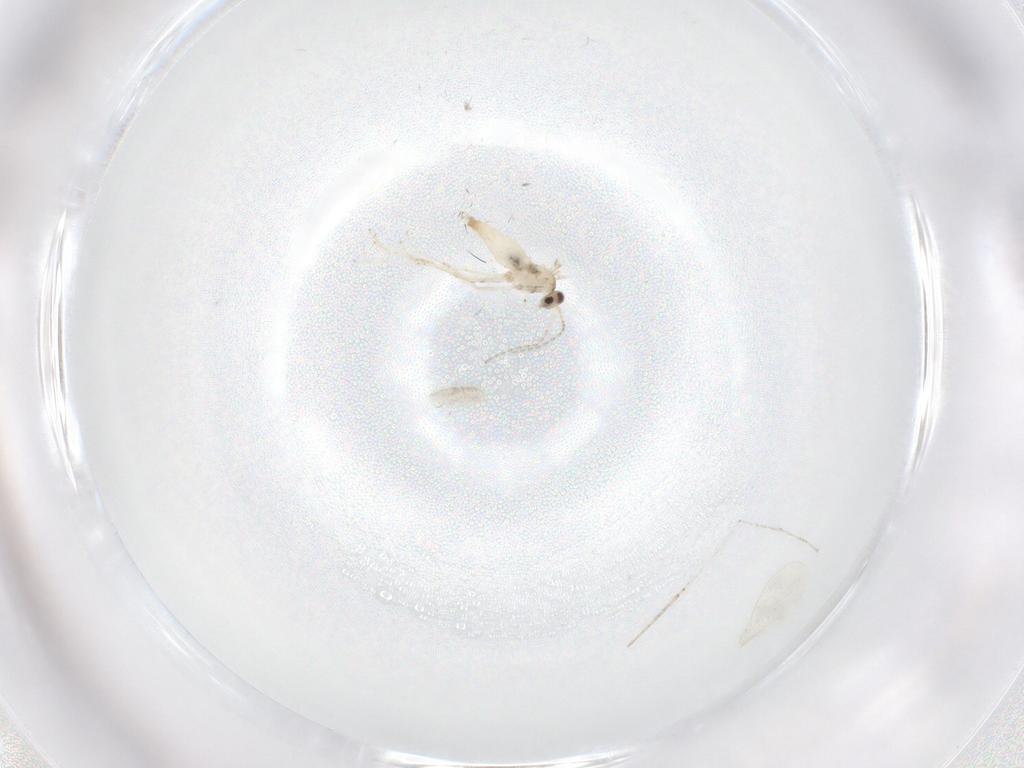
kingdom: Animalia
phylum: Arthropoda
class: Insecta
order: Diptera
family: Cecidomyiidae
